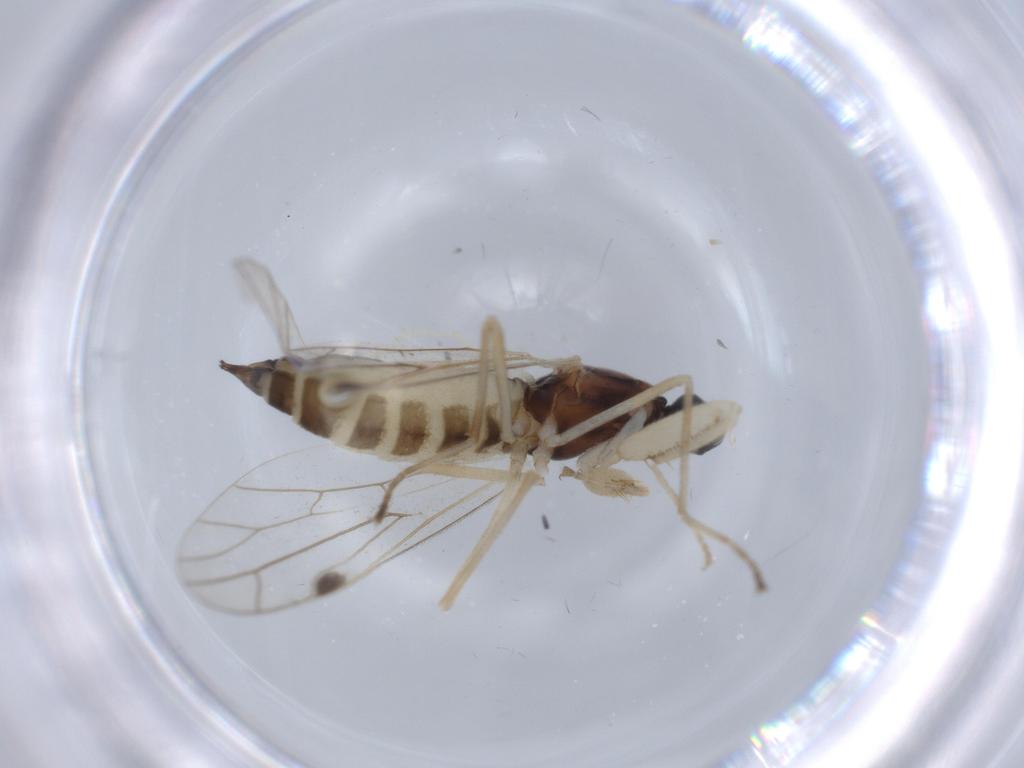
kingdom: Animalia
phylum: Arthropoda
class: Insecta
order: Diptera
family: Empididae
